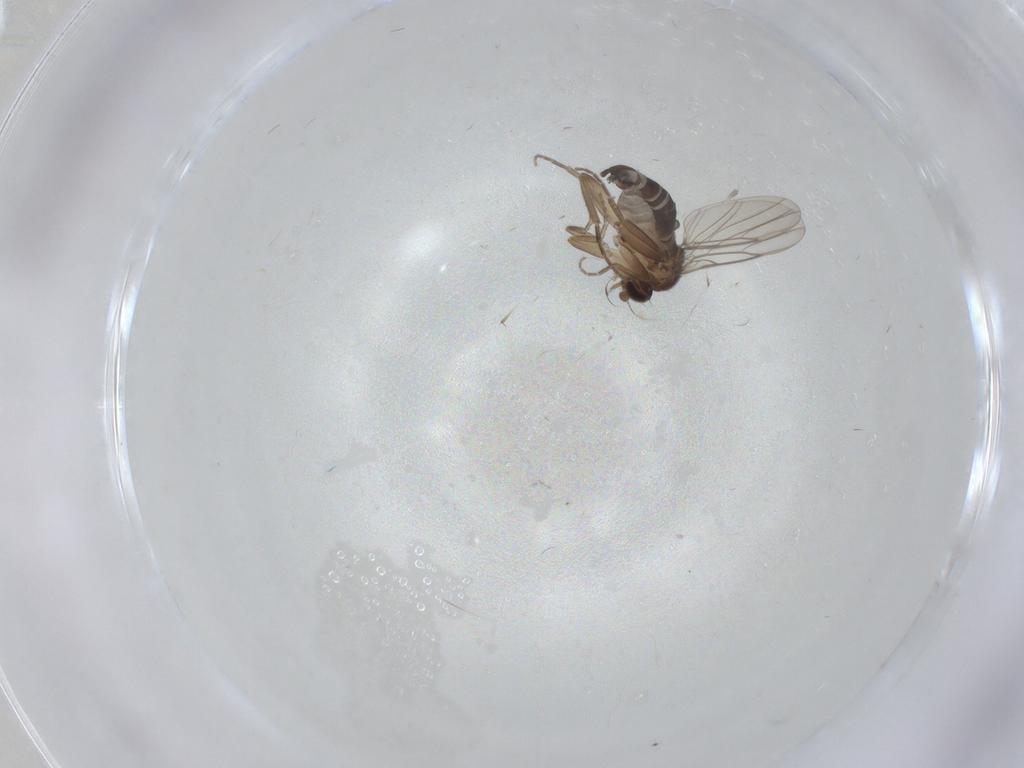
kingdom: Animalia
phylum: Arthropoda
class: Insecta
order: Diptera
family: Phoridae
